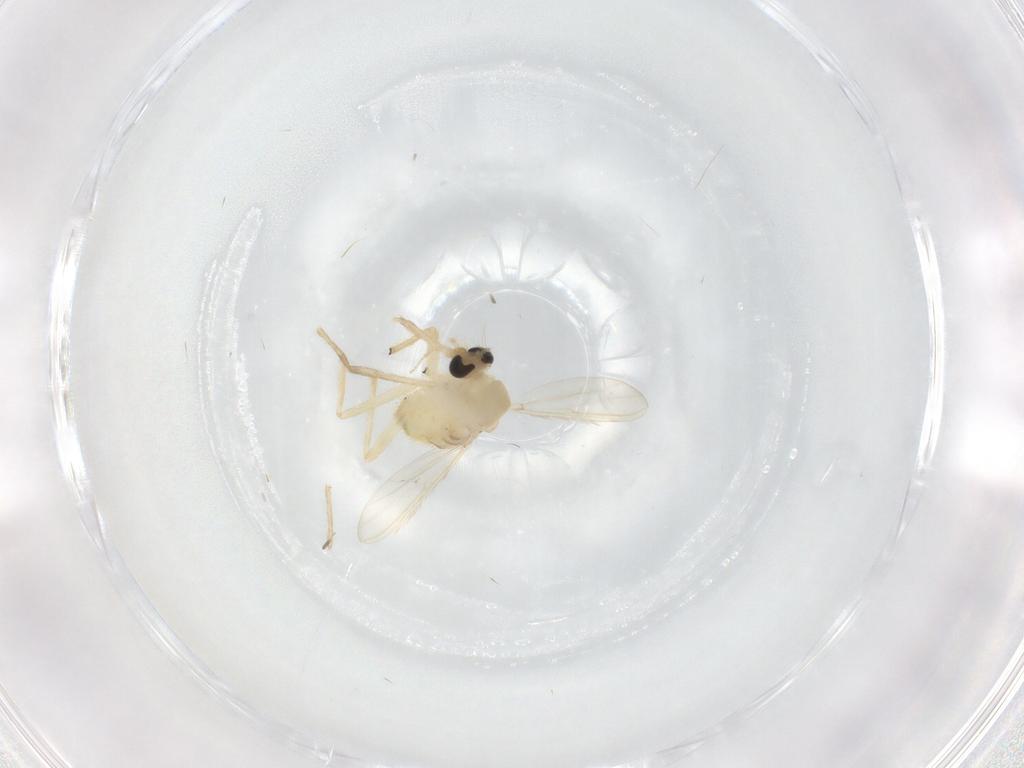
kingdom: Animalia
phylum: Arthropoda
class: Insecta
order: Diptera
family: Chironomidae
